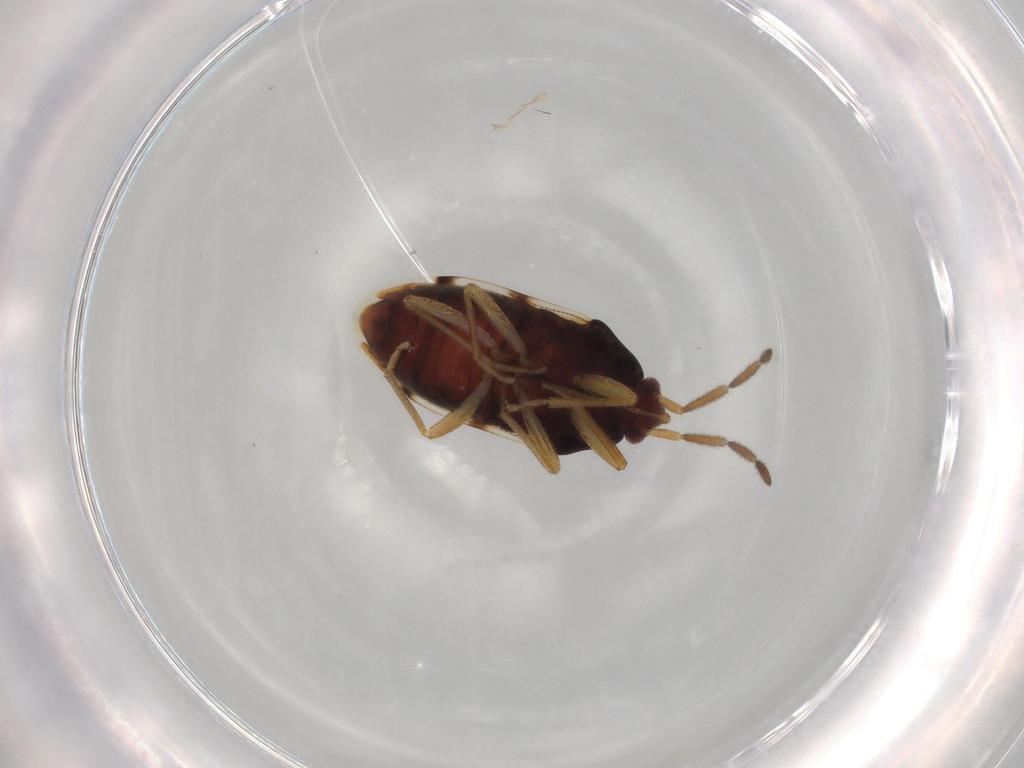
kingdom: Animalia
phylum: Arthropoda
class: Insecta
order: Hemiptera
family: Rhyparochromidae
